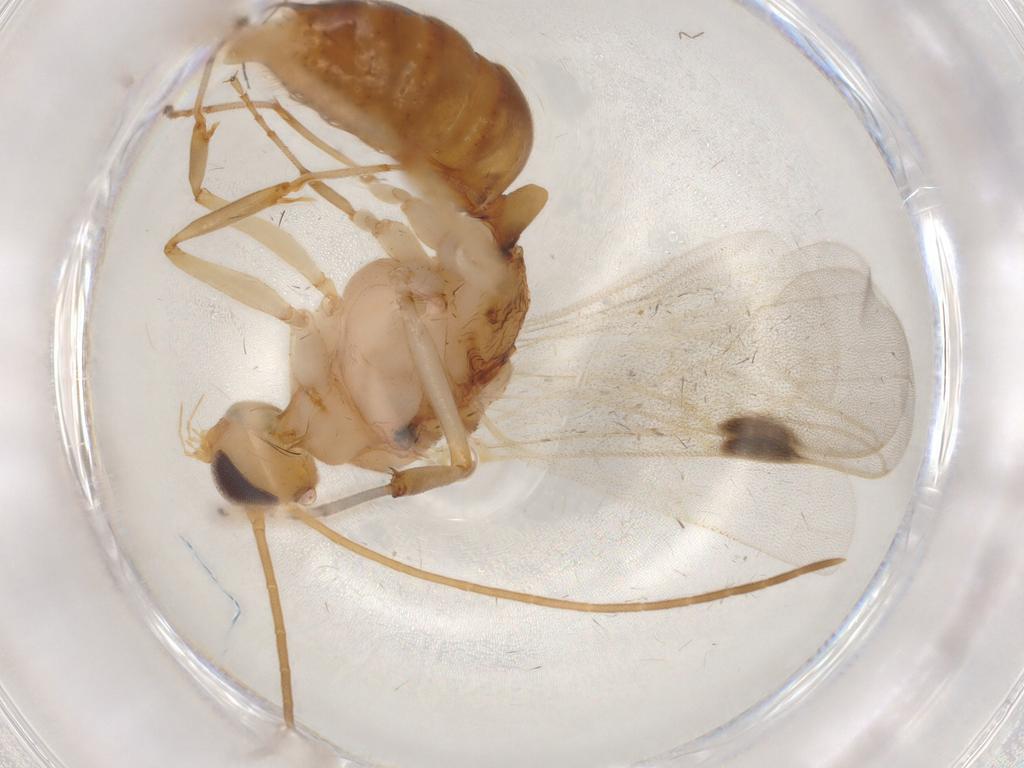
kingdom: Animalia
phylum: Arthropoda
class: Insecta
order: Hymenoptera
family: Formicidae
